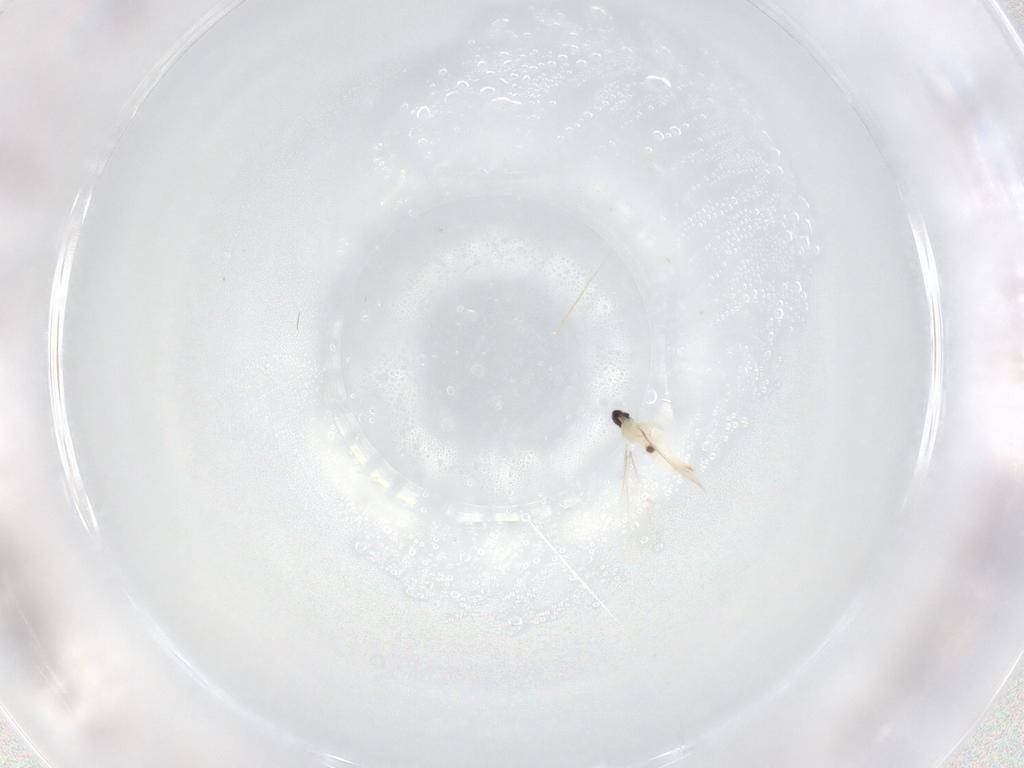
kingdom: Animalia
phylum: Arthropoda
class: Insecta
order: Diptera
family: Cecidomyiidae
